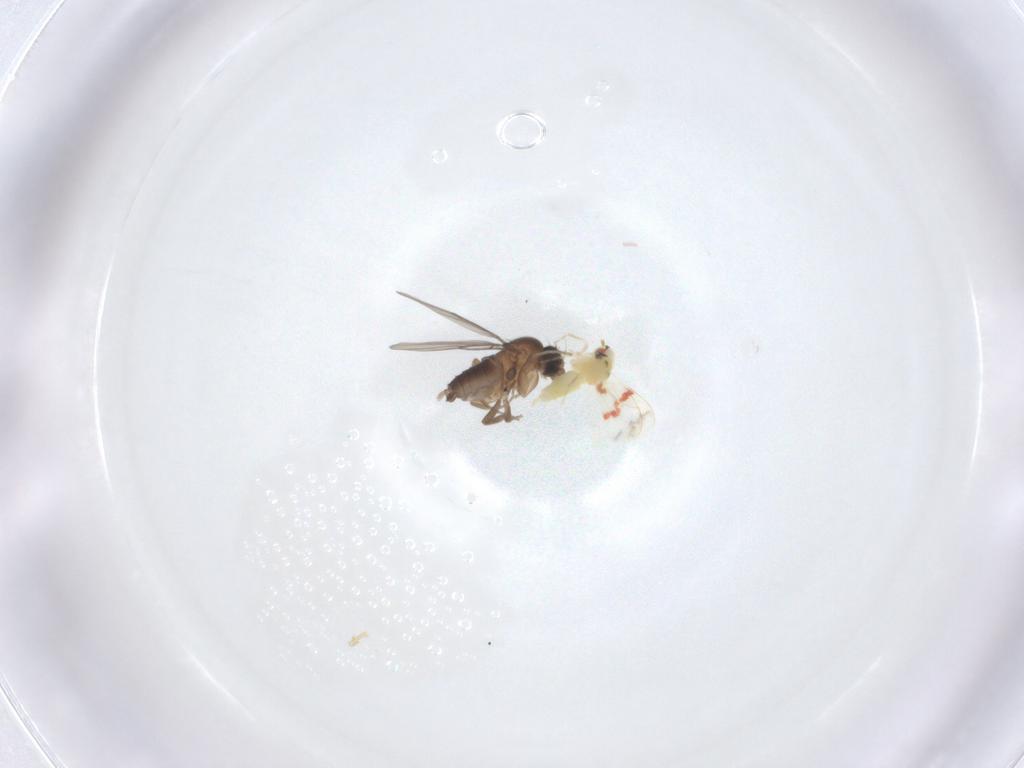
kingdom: Animalia
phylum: Arthropoda
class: Insecta
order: Diptera
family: Phoridae
